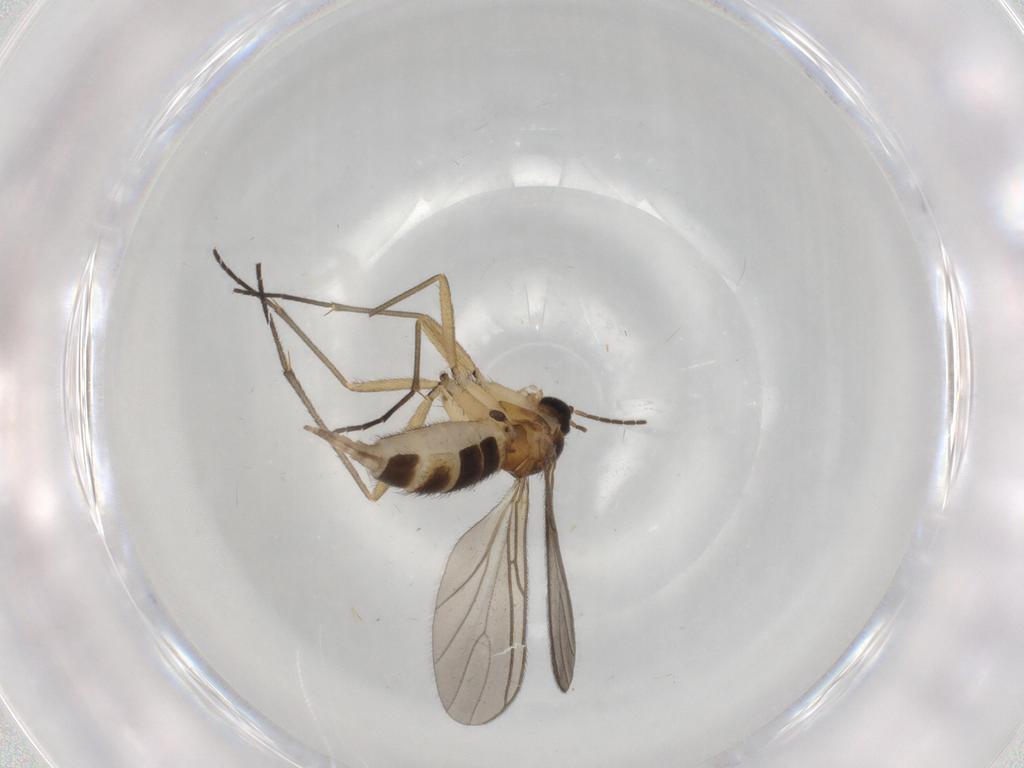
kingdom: Animalia
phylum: Arthropoda
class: Insecta
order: Diptera
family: Sciaridae
